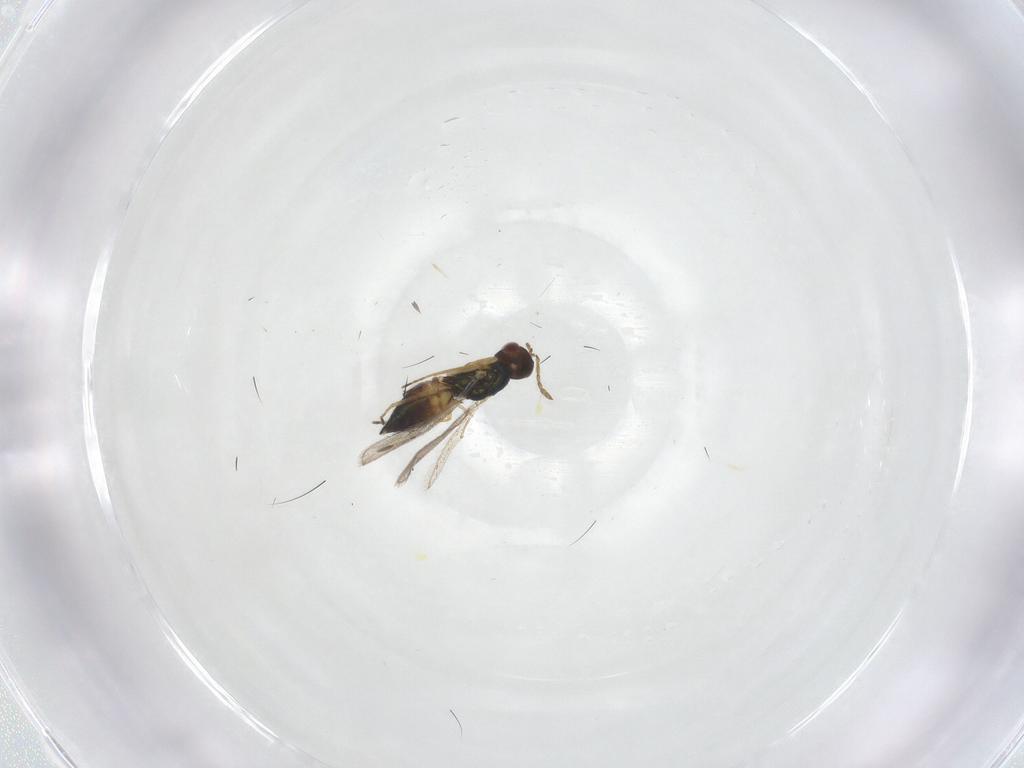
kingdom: Animalia
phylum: Arthropoda
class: Insecta
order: Hymenoptera
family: Eulophidae
